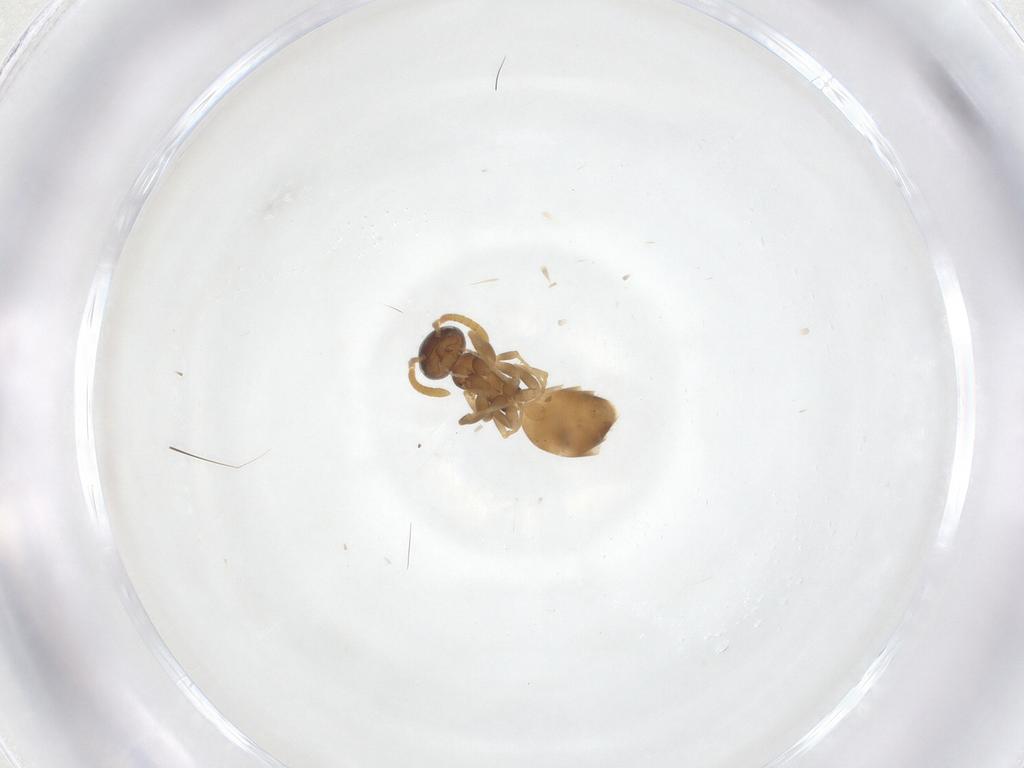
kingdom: Animalia
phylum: Arthropoda
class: Insecta
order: Hymenoptera
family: Formicidae
